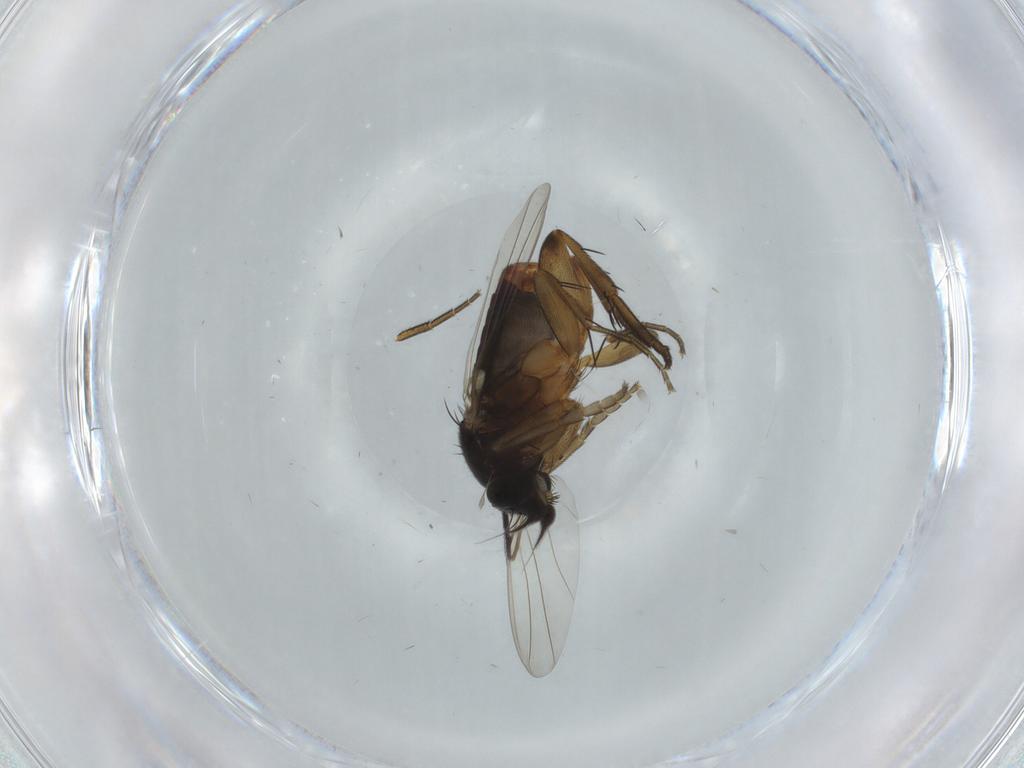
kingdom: Animalia
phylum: Arthropoda
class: Insecta
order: Diptera
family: Phoridae
